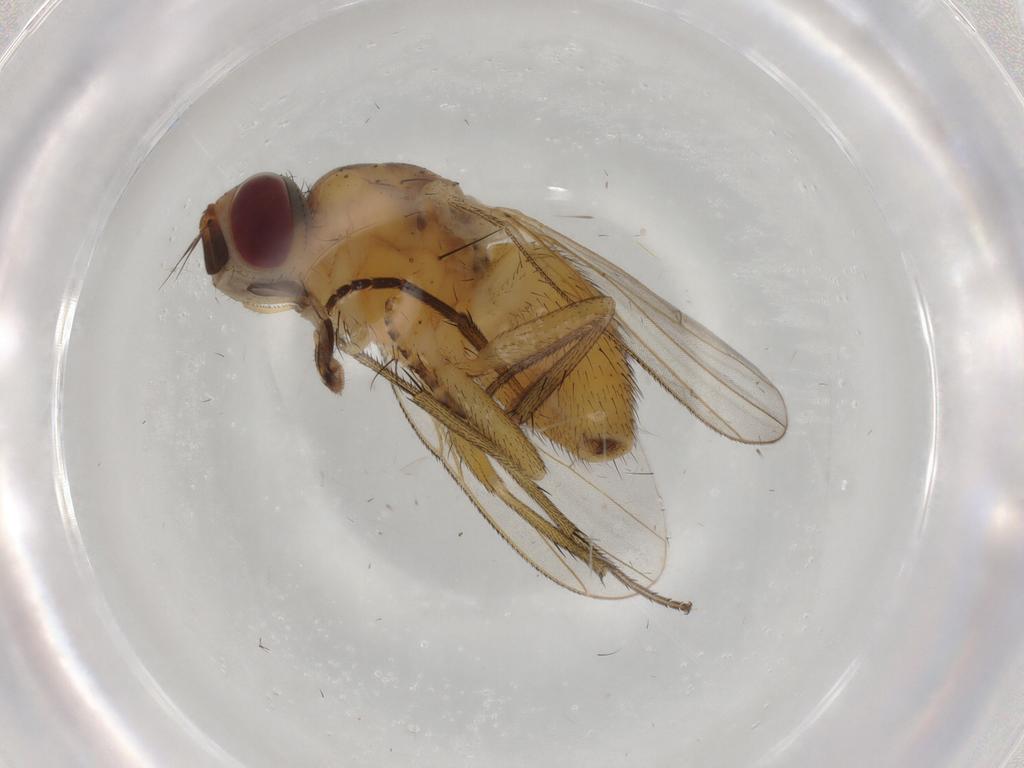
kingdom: Animalia
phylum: Arthropoda
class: Insecta
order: Diptera
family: Muscidae
